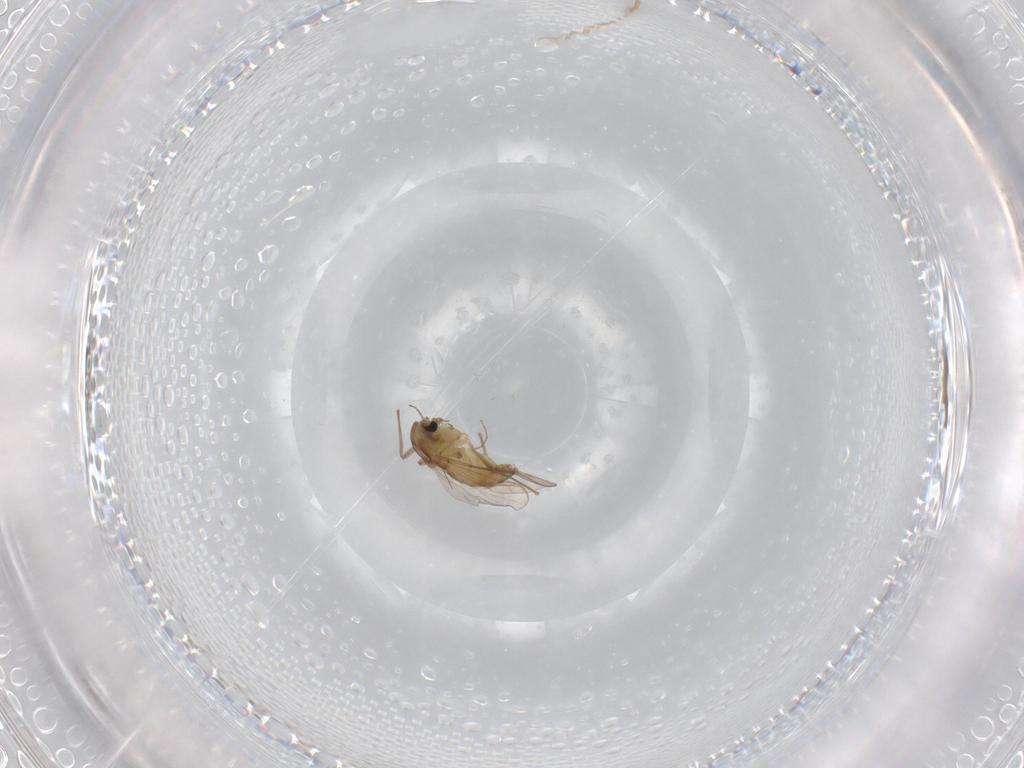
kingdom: Animalia
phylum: Arthropoda
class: Insecta
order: Diptera
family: Chironomidae
